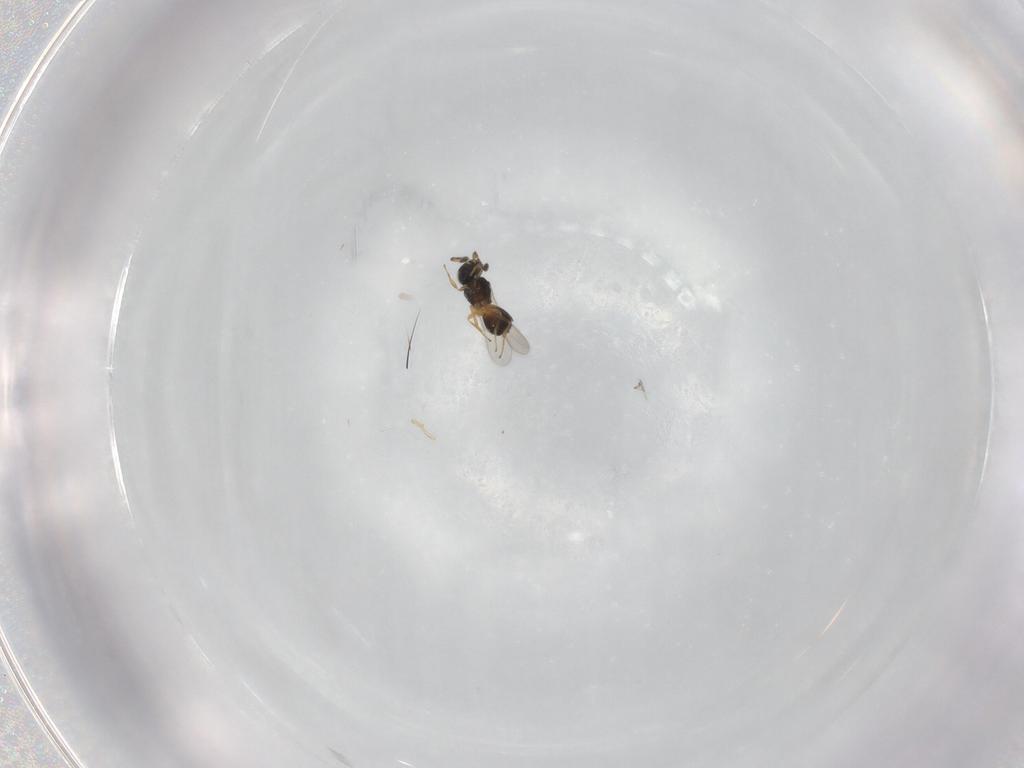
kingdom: Animalia
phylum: Arthropoda
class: Insecta
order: Hymenoptera
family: Scelionidae
